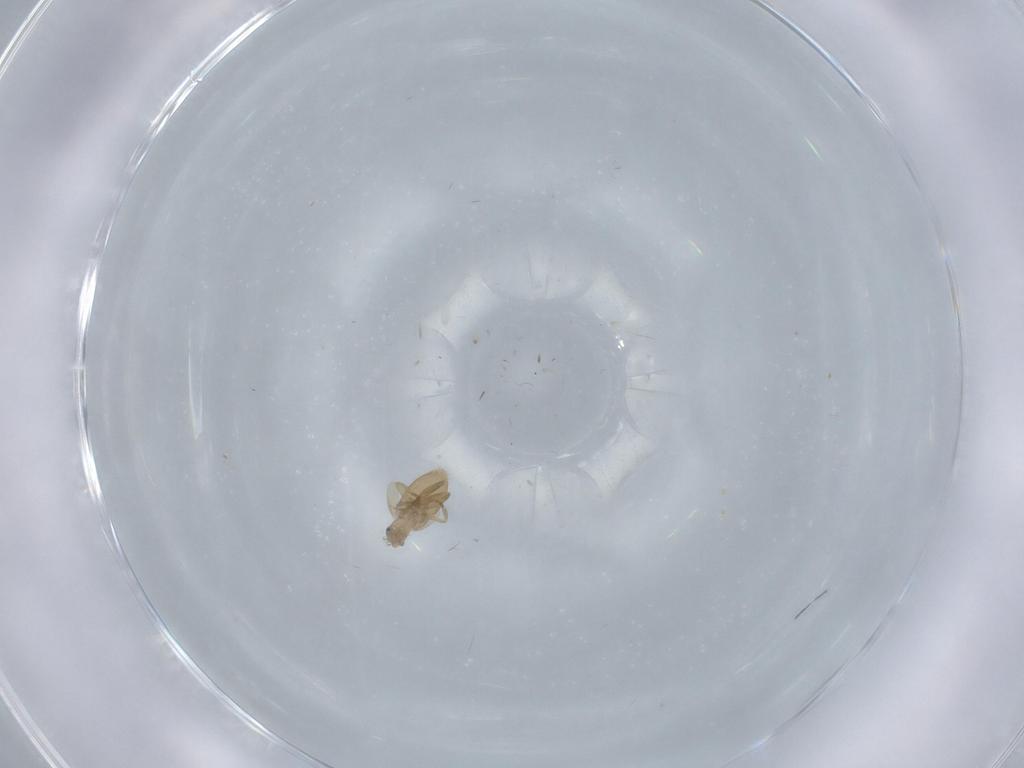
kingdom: Animalia
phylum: Arthropoda
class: Insecta
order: Diptera
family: Phoridae
